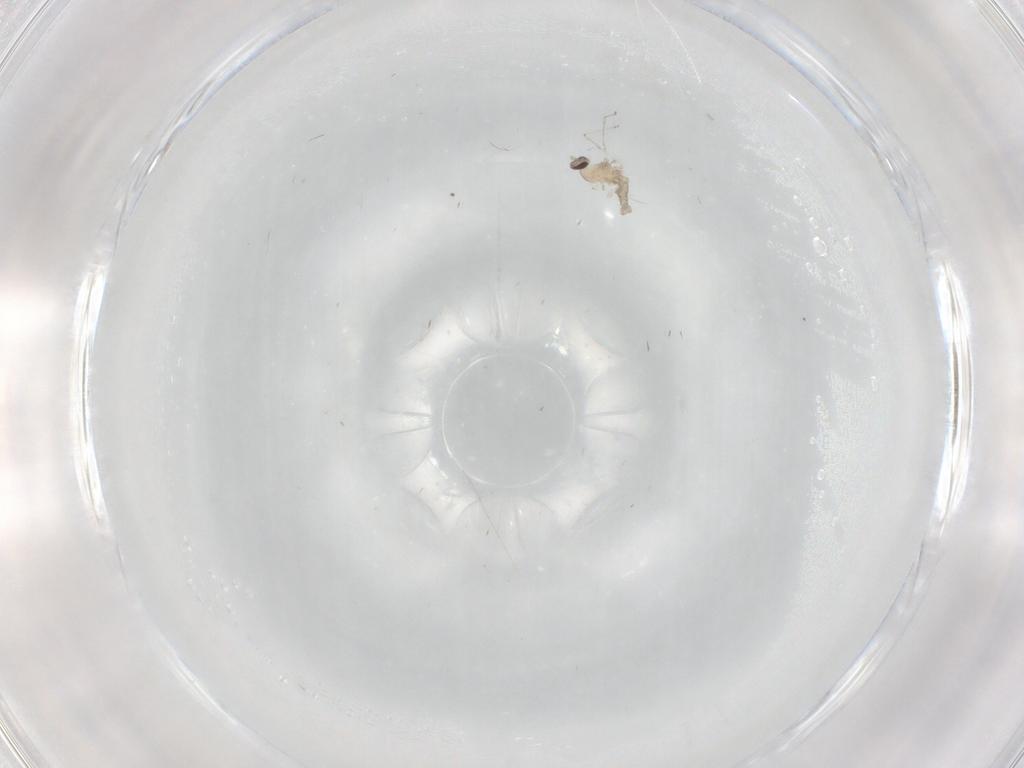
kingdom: Animalia
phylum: Arthropoda
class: Insecta
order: Diptera
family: Cecidomyiidae
